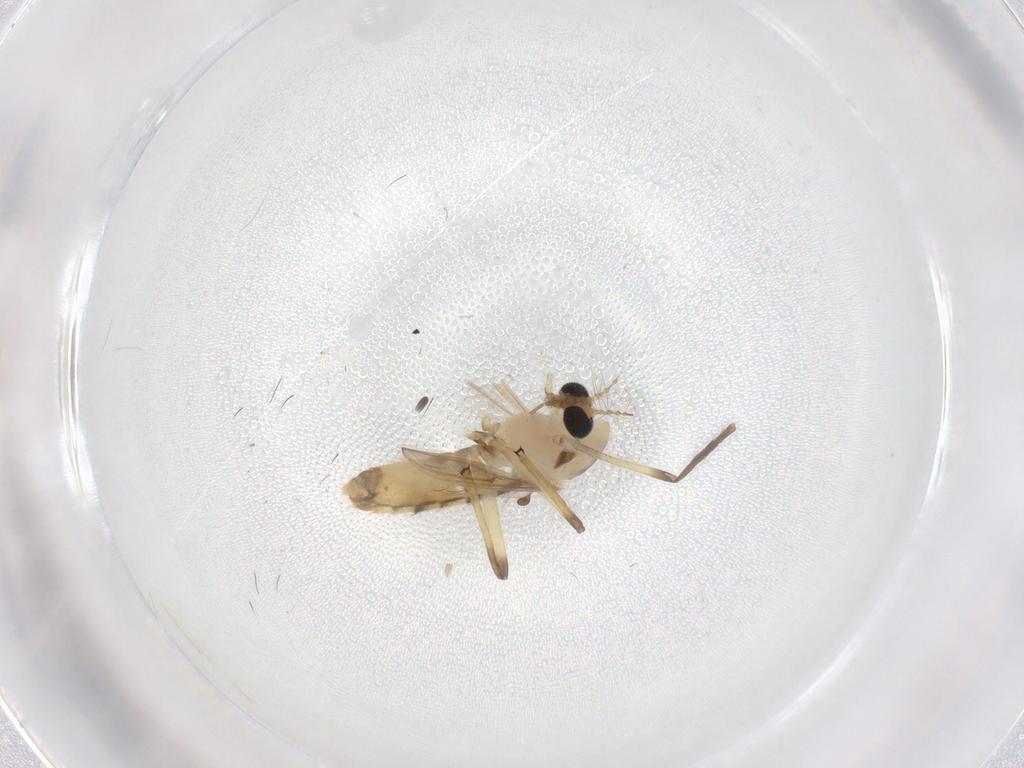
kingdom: Animalia
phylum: Arthropoda
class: Insecta
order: Diptera
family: Chironomidae
